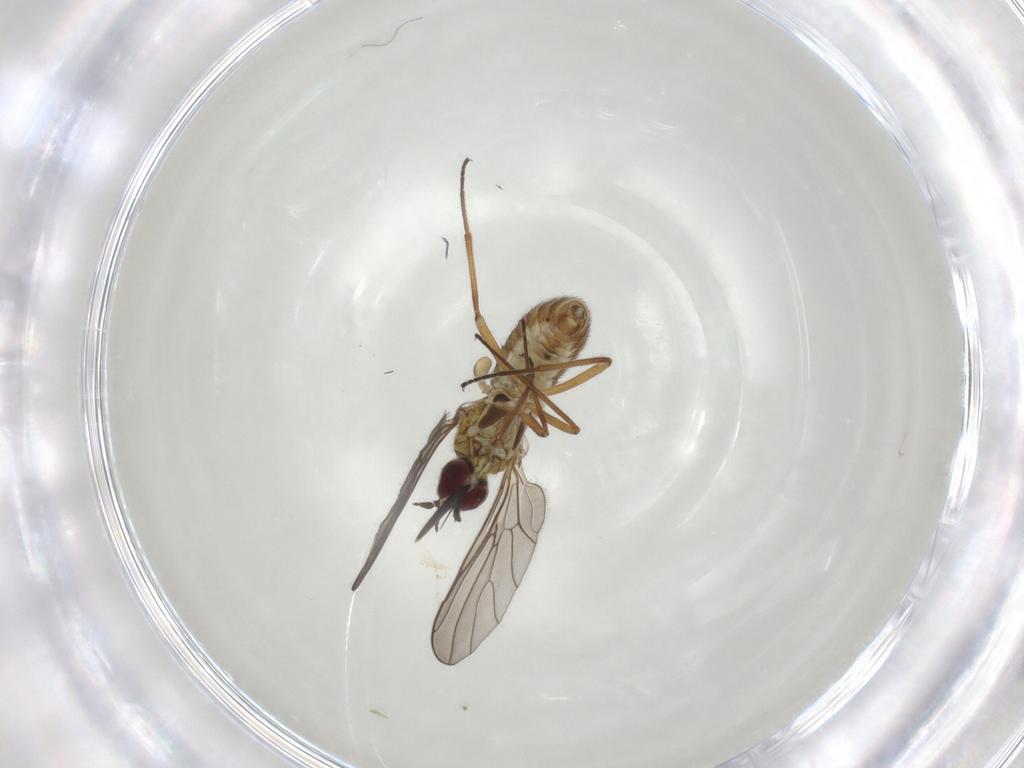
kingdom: Animalia
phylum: Arthropoda
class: Insecta
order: Diptera
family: Bombyliidae
